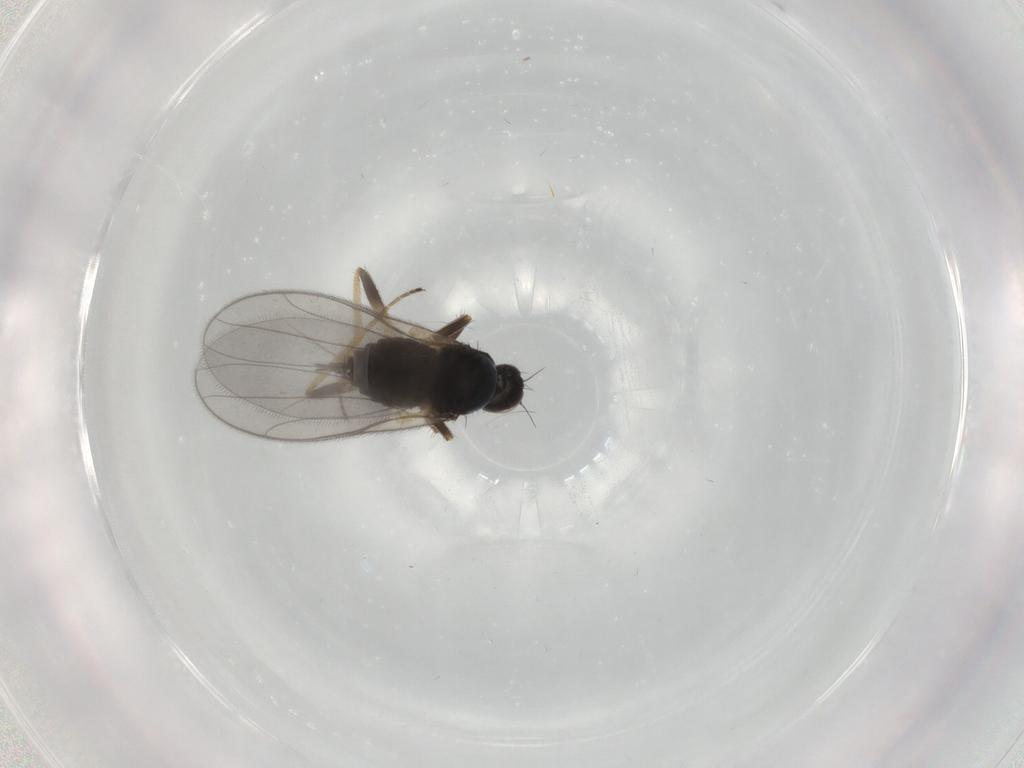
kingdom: Animalia
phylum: Arthropoda
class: Insecta
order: Diptera
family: Hybotidae
